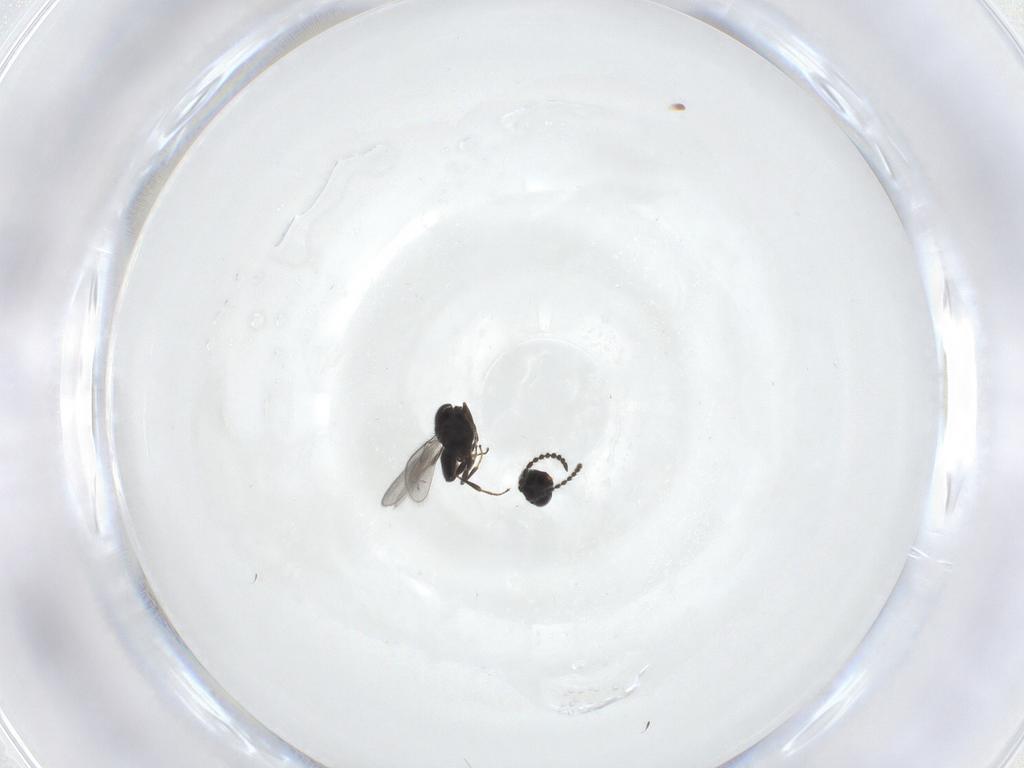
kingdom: Animalia
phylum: Arthropoda
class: Insecta
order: Hymenoptera
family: Scelionidae
